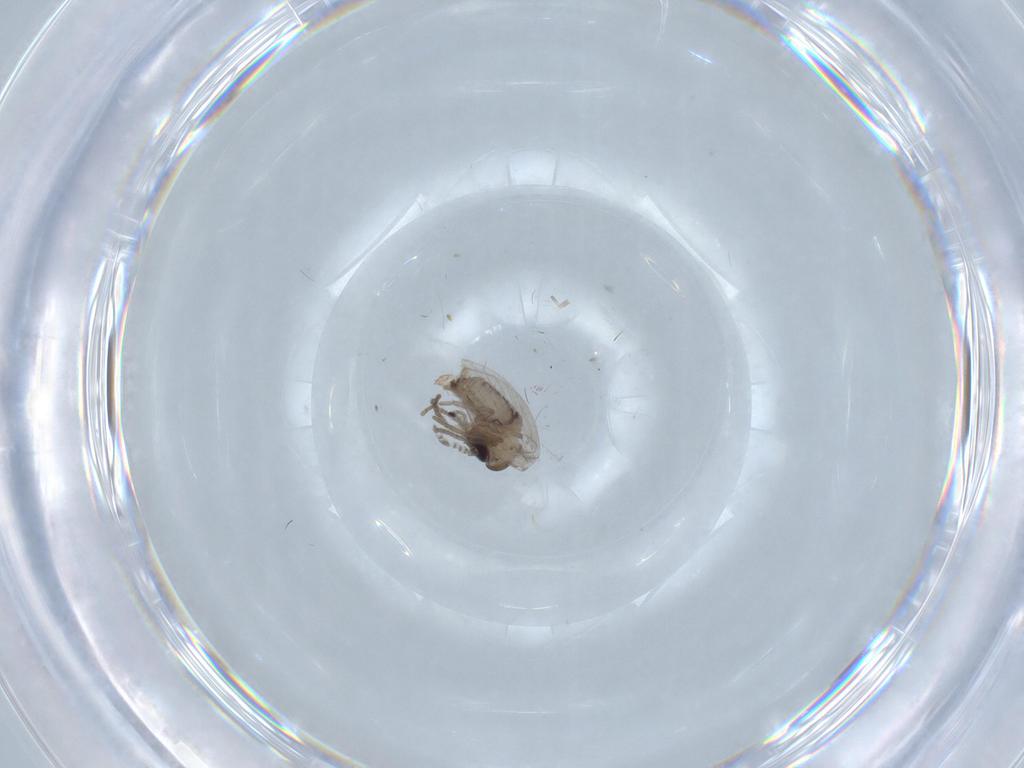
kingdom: Animalia
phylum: Arthropoda
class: Insecta
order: Diptera
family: Psychodidae
